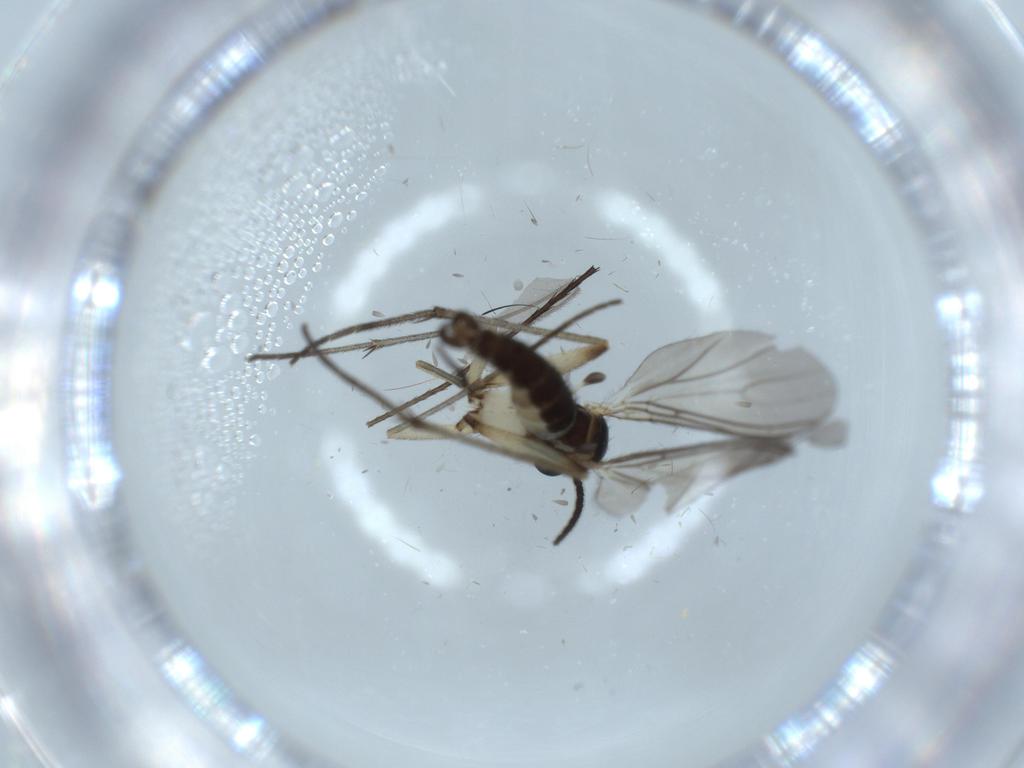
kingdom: Animalia
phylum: Arthropoda
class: Insecta
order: Diptera
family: Sciaridae
